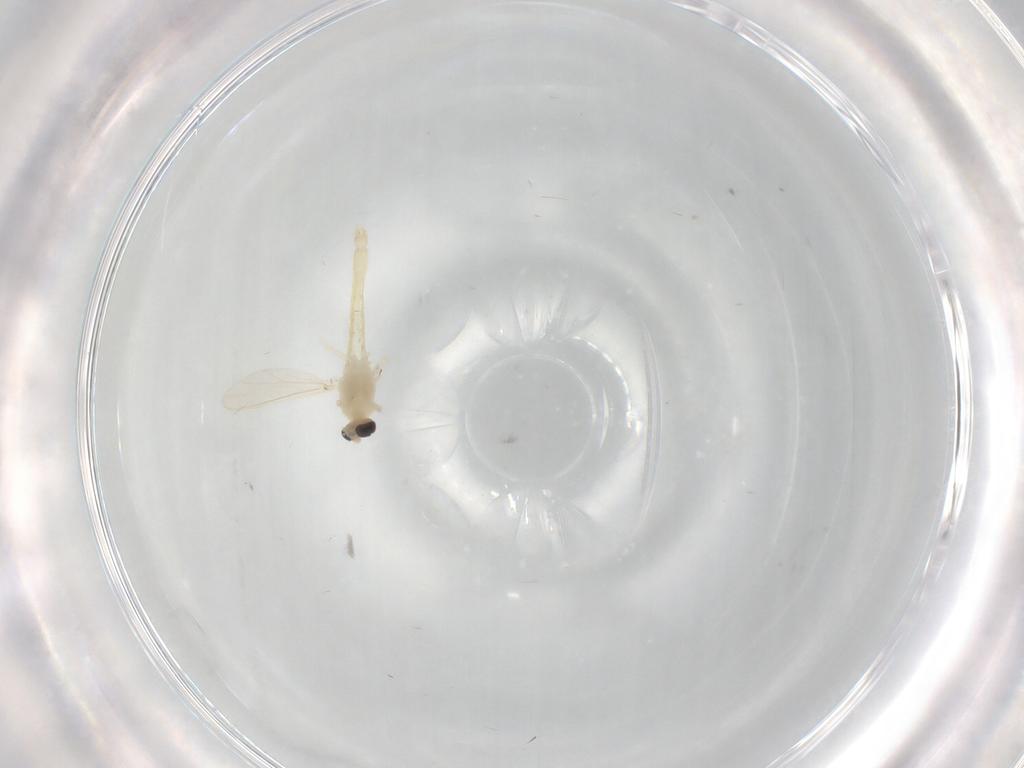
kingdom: Animalia
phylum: Arthropoda
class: Insecta
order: Diptera
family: Chironomidae
